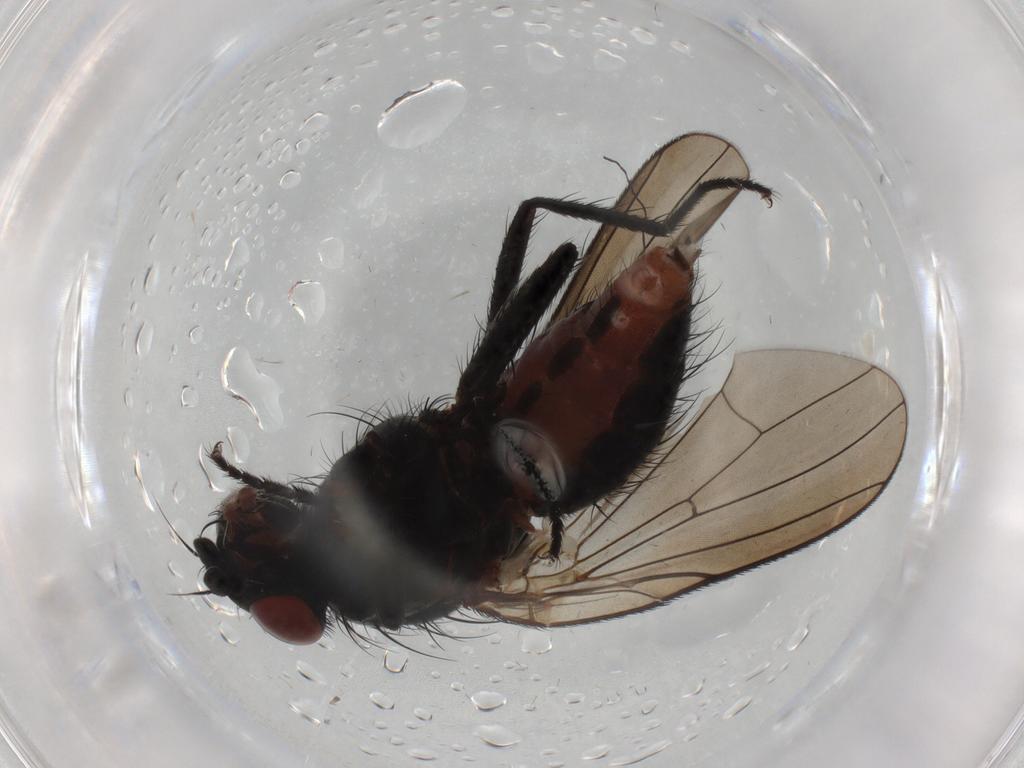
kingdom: Animalia
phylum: Arthropoda
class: Insecta
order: Diptera
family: Anthomyiidae
